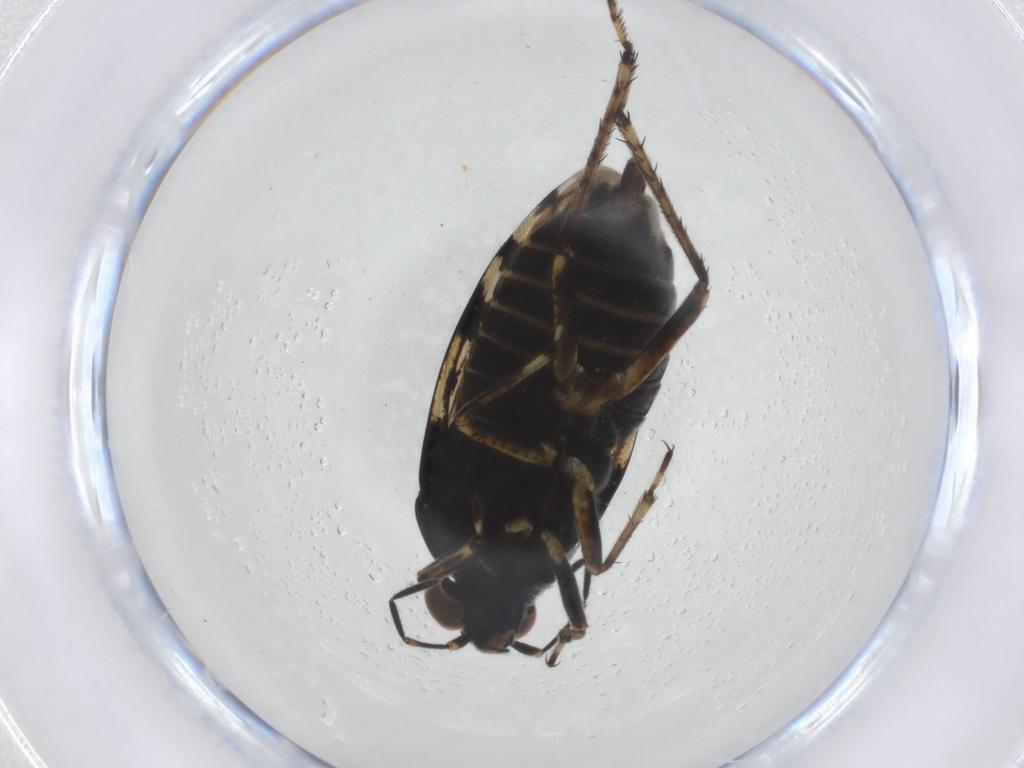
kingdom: Animalia
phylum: Arthropoda
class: Insecta
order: Hemiptera
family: Saldidae
